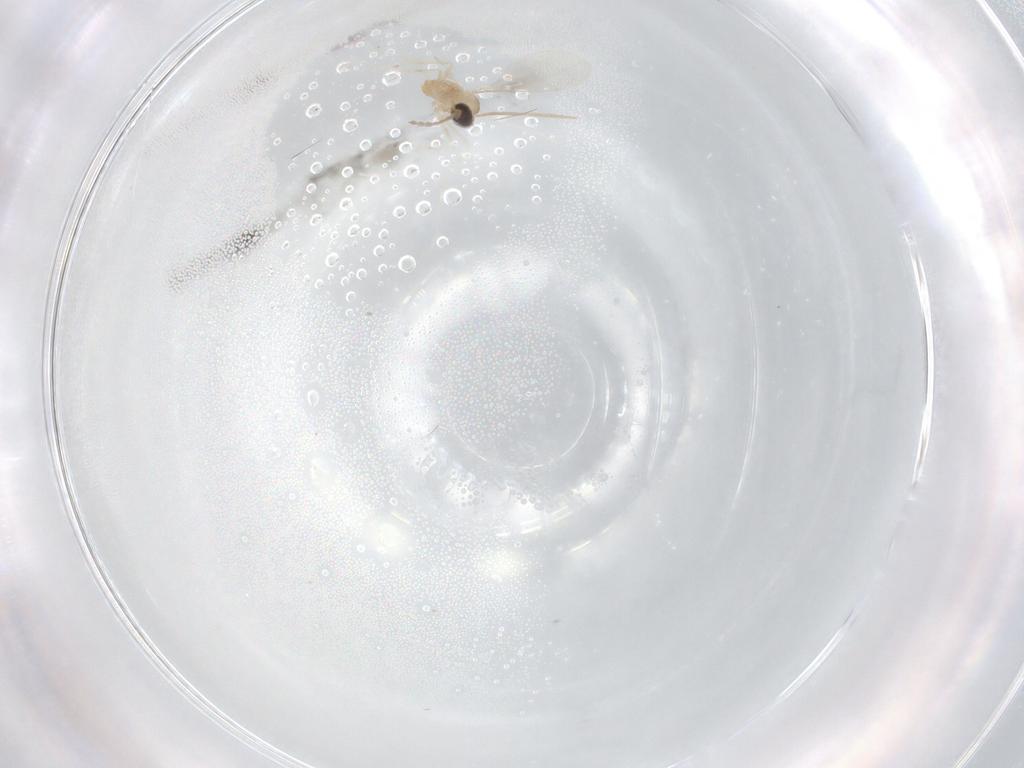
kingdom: Animalia
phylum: Arthropoda
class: Insecta
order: Diptera
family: Cecidomyiidae
